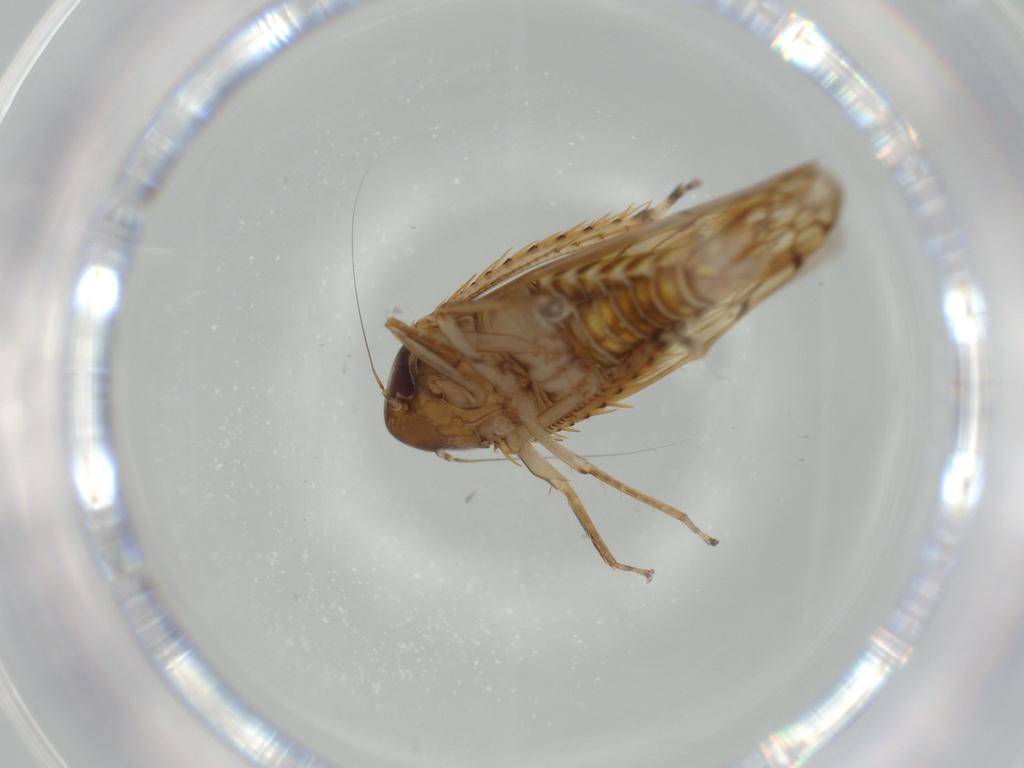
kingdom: Animalia
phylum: Arthropoda
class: Insecta
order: Hemiptera
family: Cicadellidae
